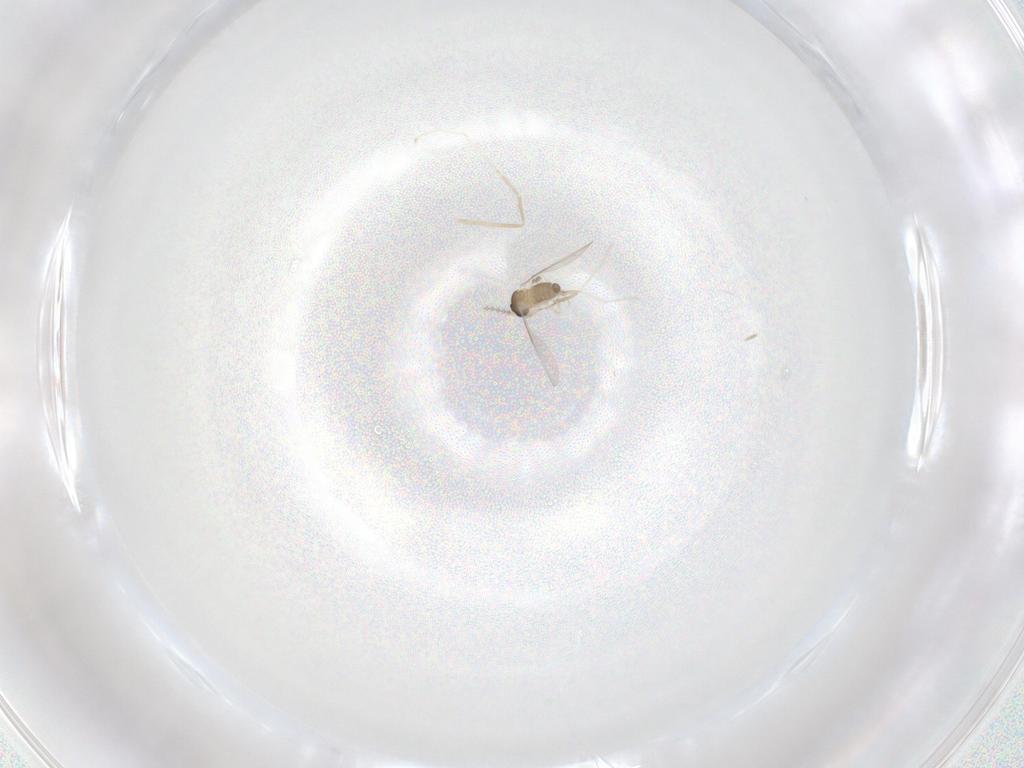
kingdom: Animalia
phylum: Arthropoda
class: Insecta
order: Diptera
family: Cecidomyiidae
